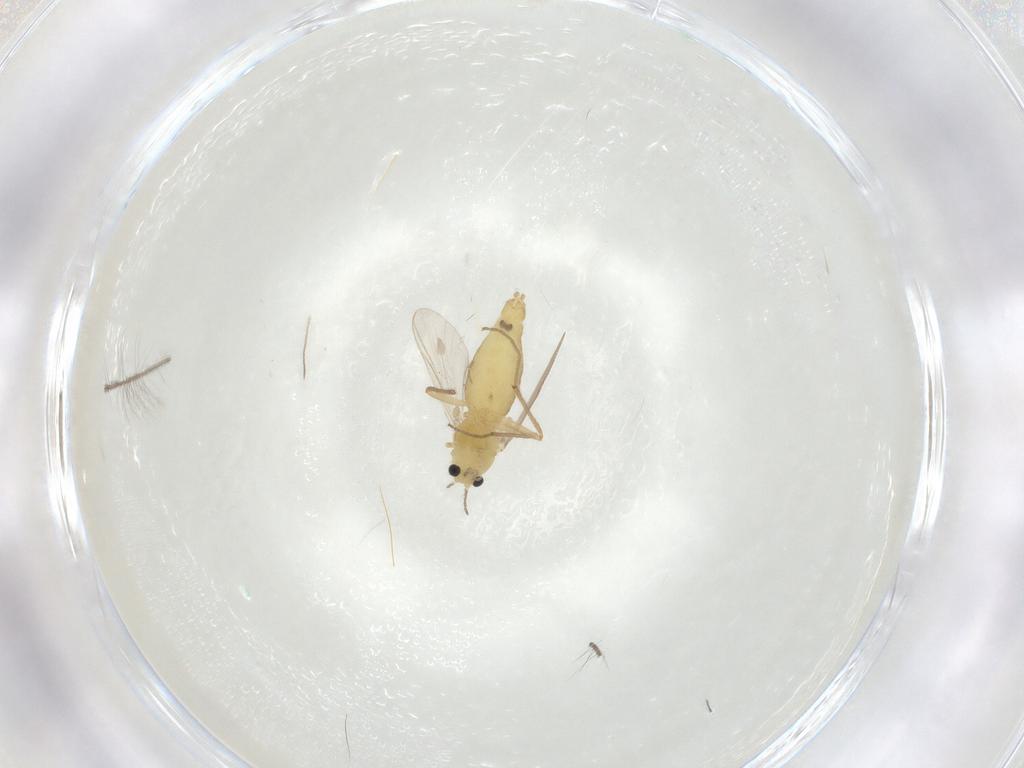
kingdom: Animalia
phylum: Arthropoda
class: Insecta
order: Diptera
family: Chironomidae
